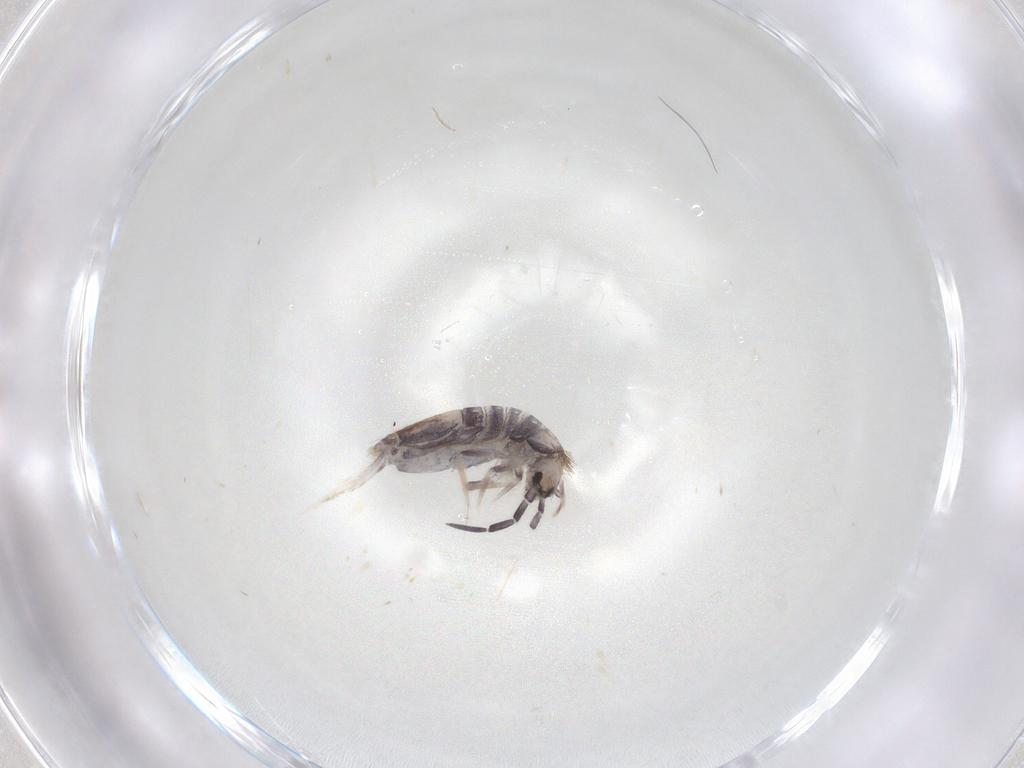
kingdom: Animalia
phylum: Arthropoda
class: Collembola
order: Poduromorpha
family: Hypogastruridae
